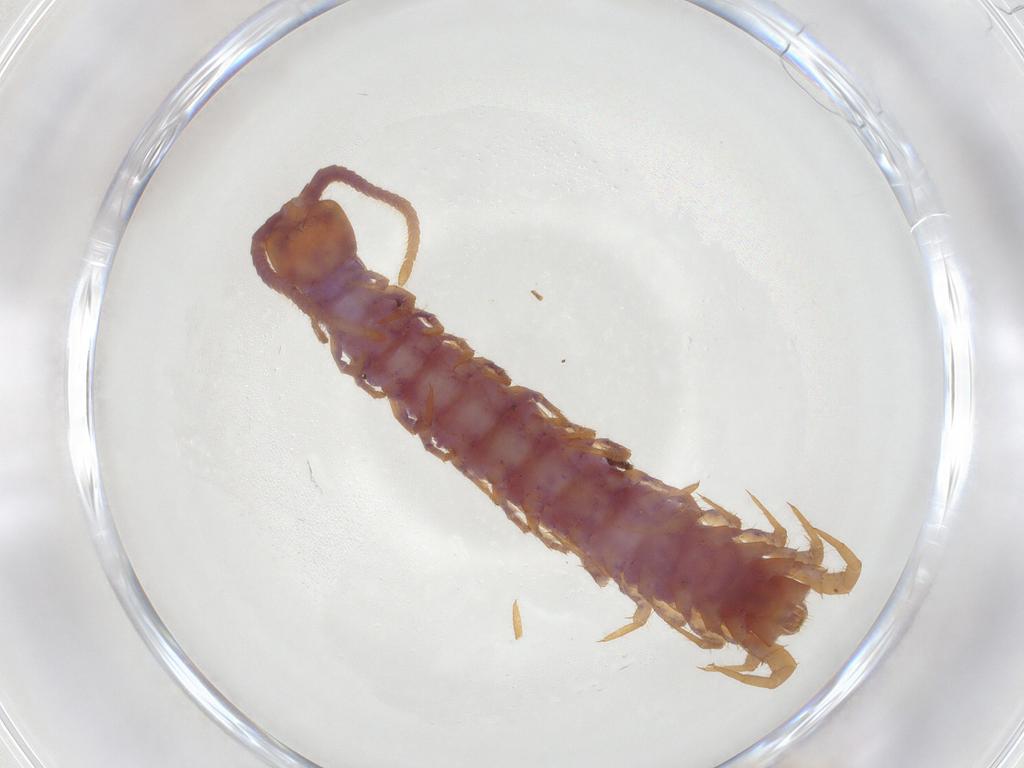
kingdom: Animalia
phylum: Arthropoda
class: Chilopoda
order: Lithobiomorpha
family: Lithobiidae
